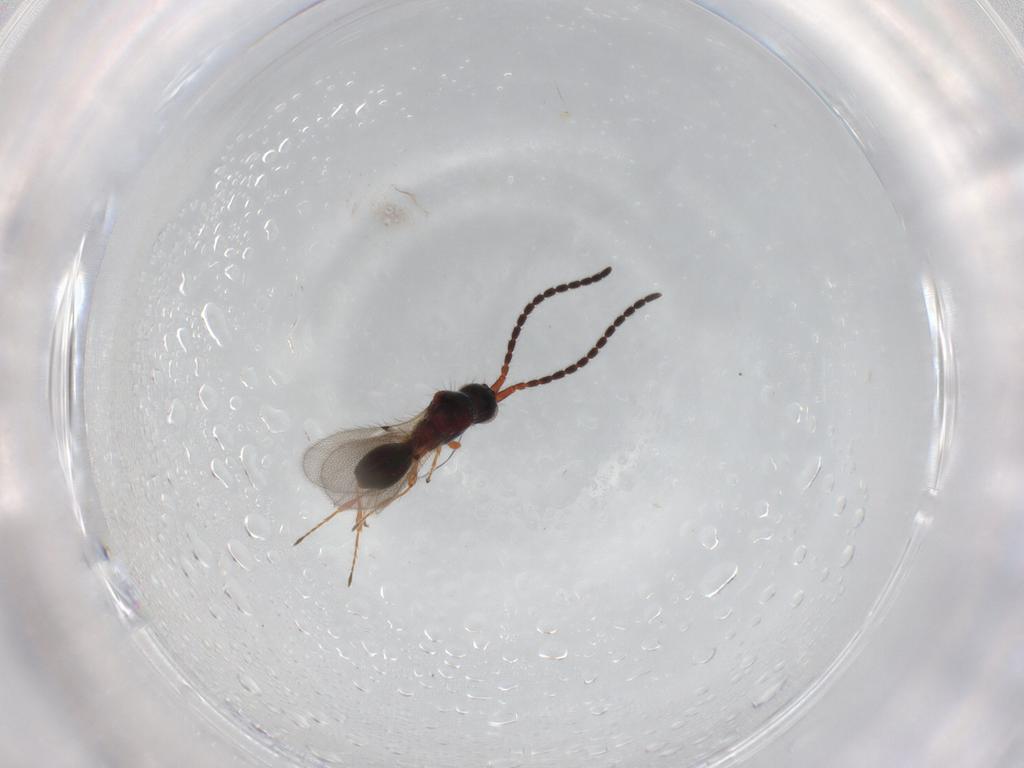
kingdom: Animalia
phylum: Arthropoda
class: Insecta
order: Hymenoptera
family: Diapriidae
